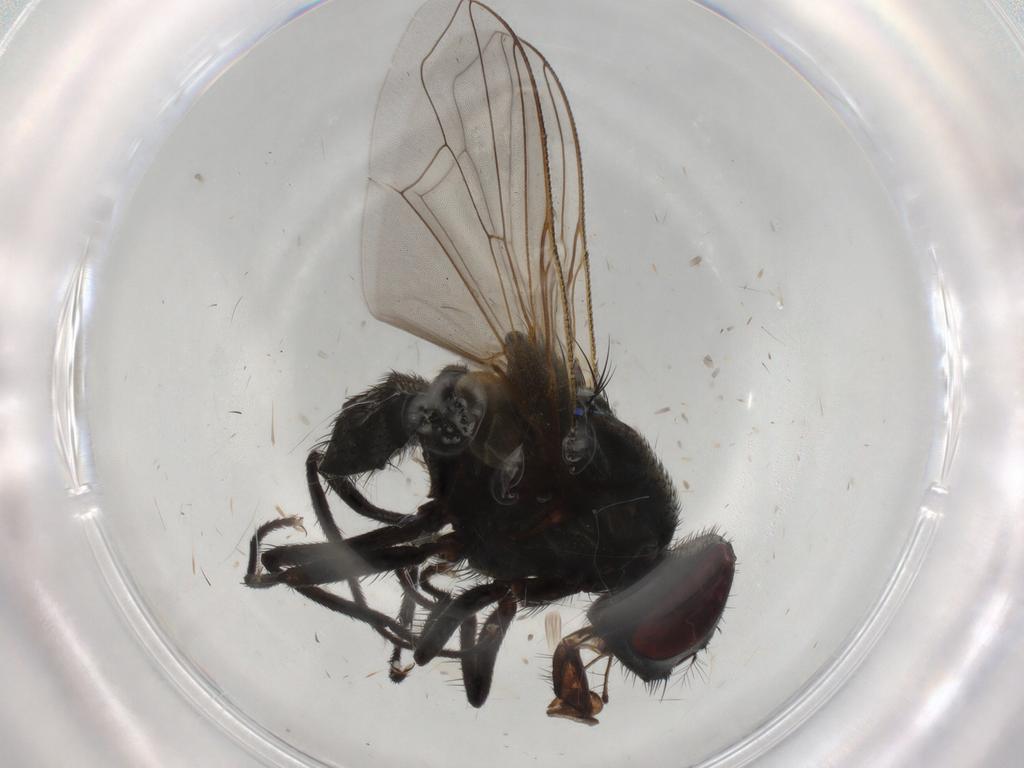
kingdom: Animalia
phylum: Arthropoda
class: Insecta
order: Diptera
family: Muscidae
